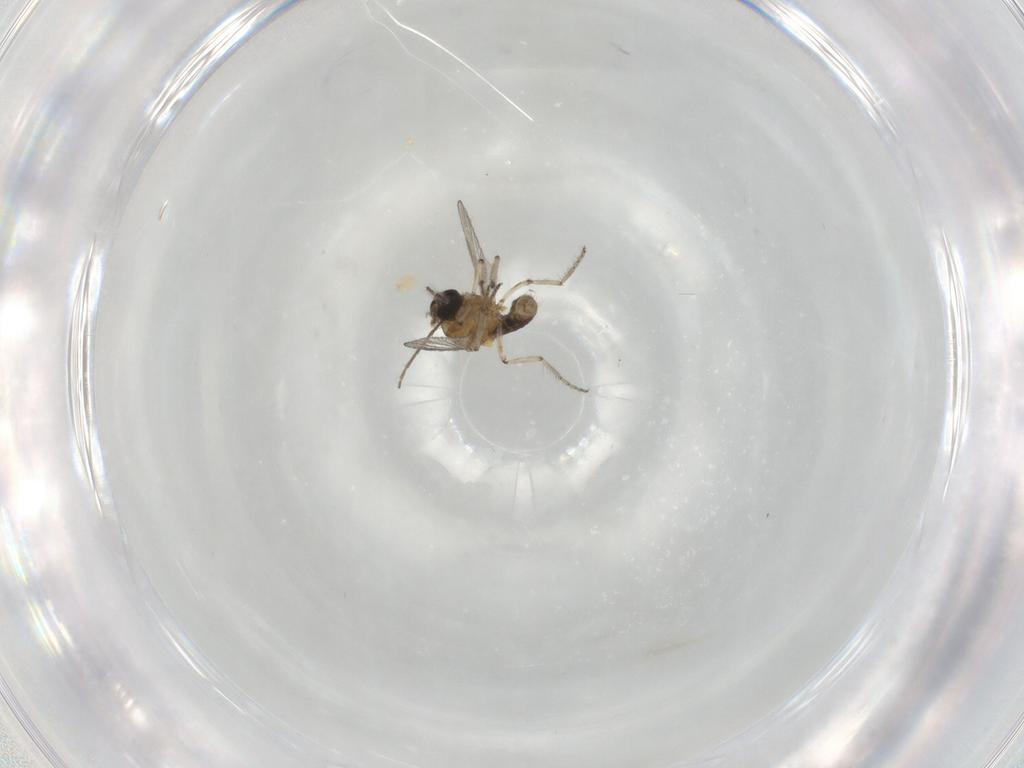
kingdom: Animalia
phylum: Arthropoda
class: Insecta
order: Diptera
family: Ceratopogonidae
